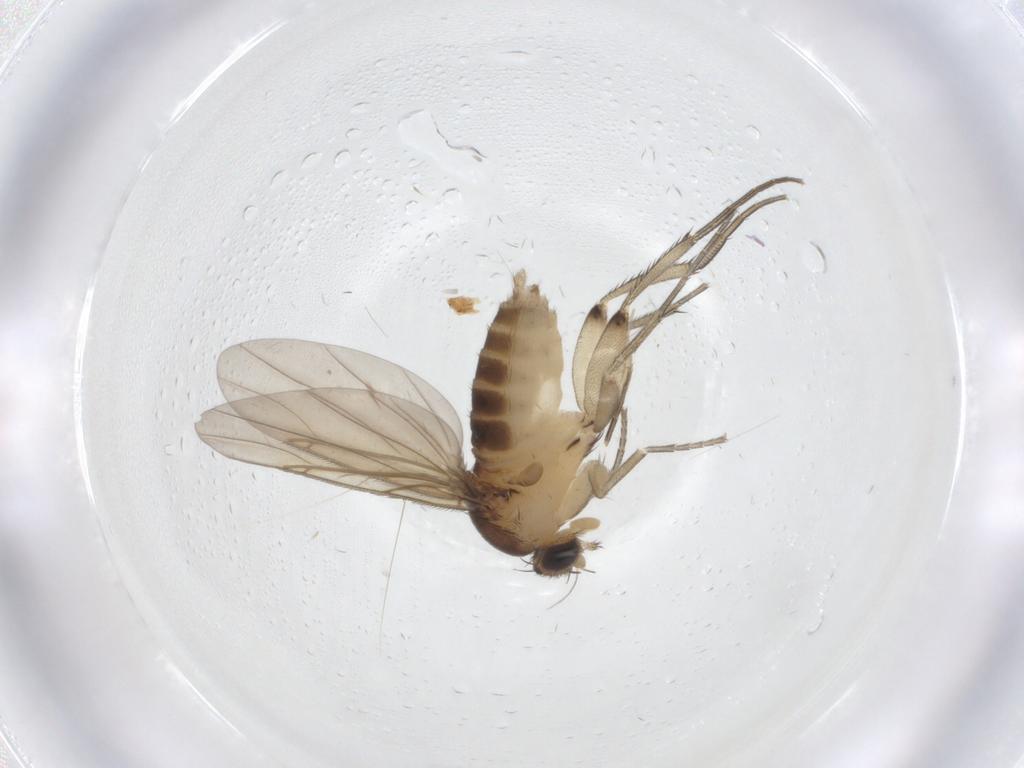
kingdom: Animalia
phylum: Arthropoda
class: Insecta
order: Diptera
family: Phoridae
